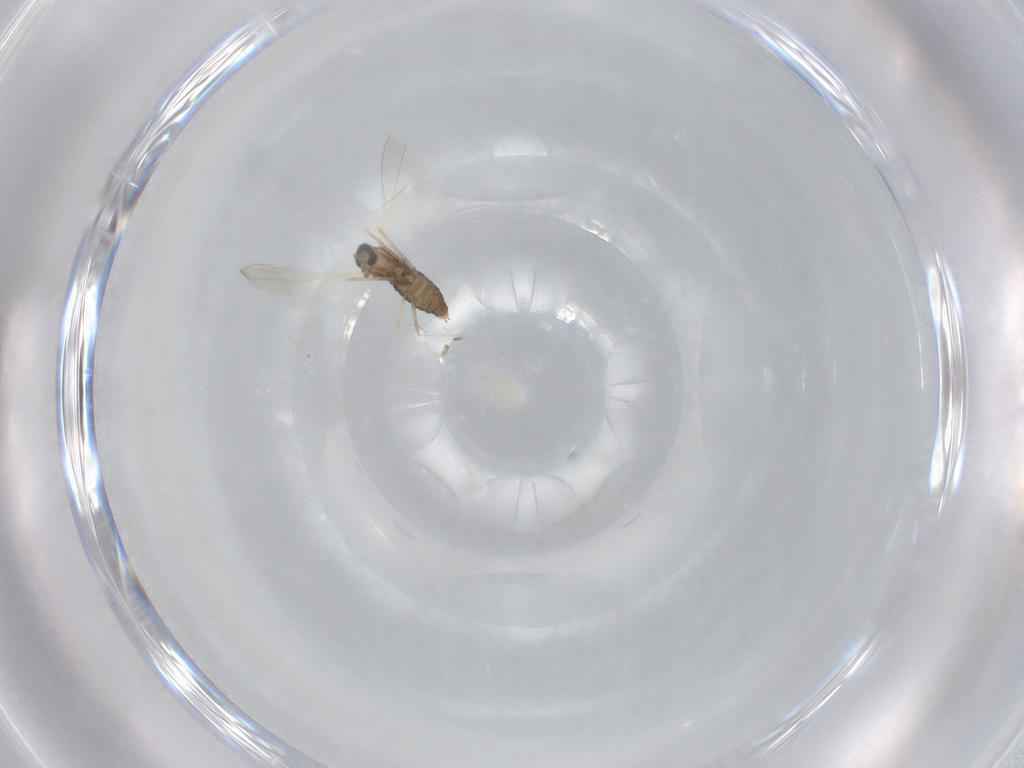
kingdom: Animalia
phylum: Arthropoda
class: Insecta
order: Diptera
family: Cecidomyiidae
